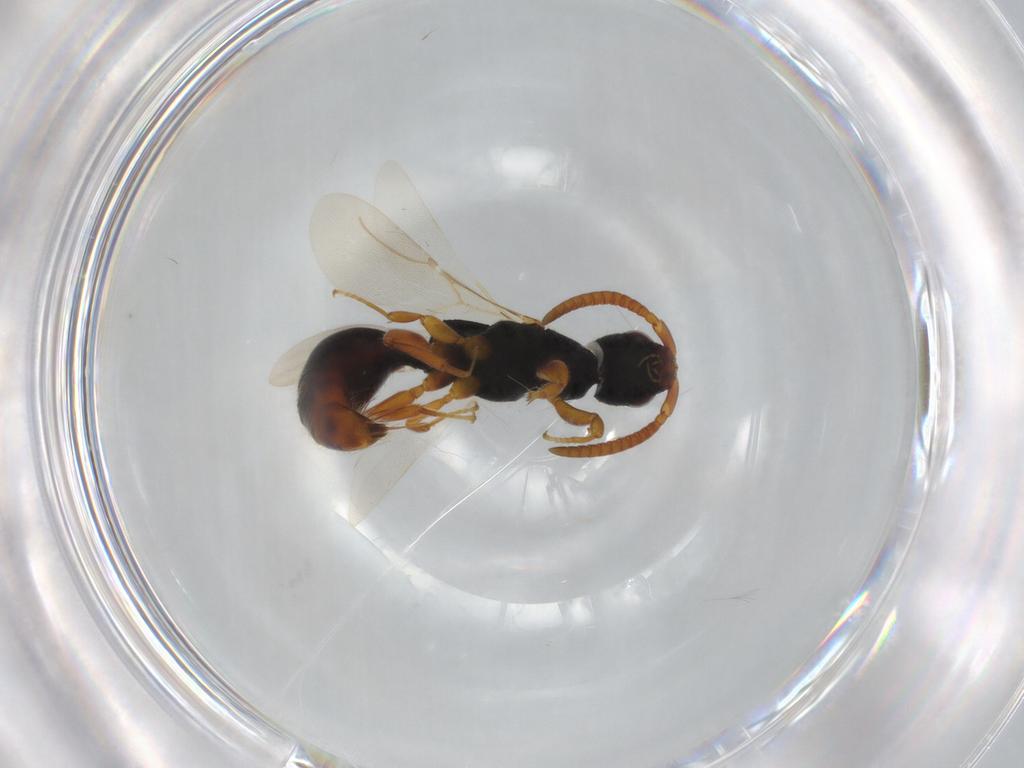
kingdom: Animalia
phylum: Arthropoda
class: Insecta
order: Hymenoptera
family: Bethylidae
